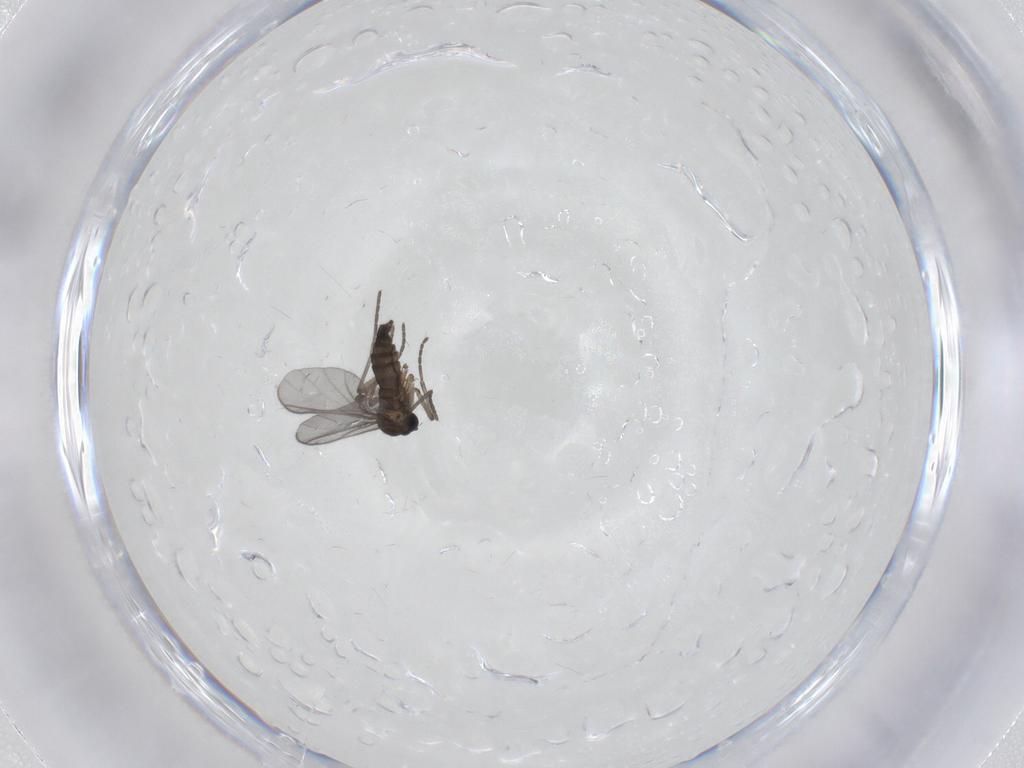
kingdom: Animalia
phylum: Arthropoda
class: Insecta
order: Diptera
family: Sciaridae
